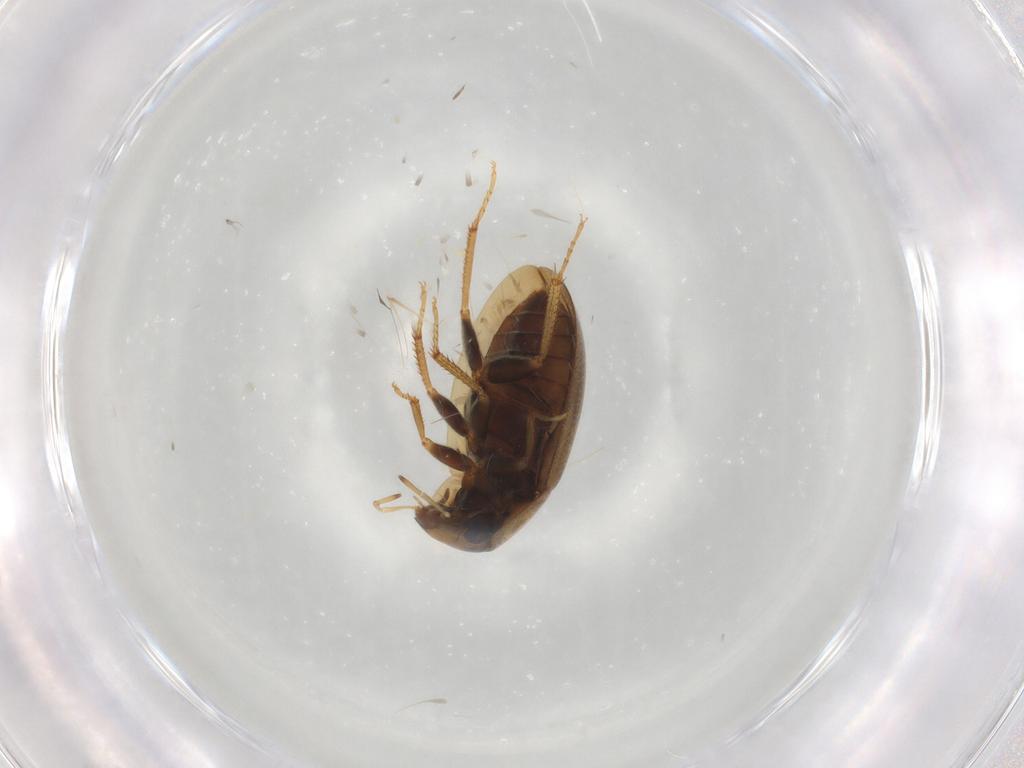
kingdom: Animalia
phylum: Arthropoda
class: Insecta
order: Coleoptera
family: Hydrophilidae
